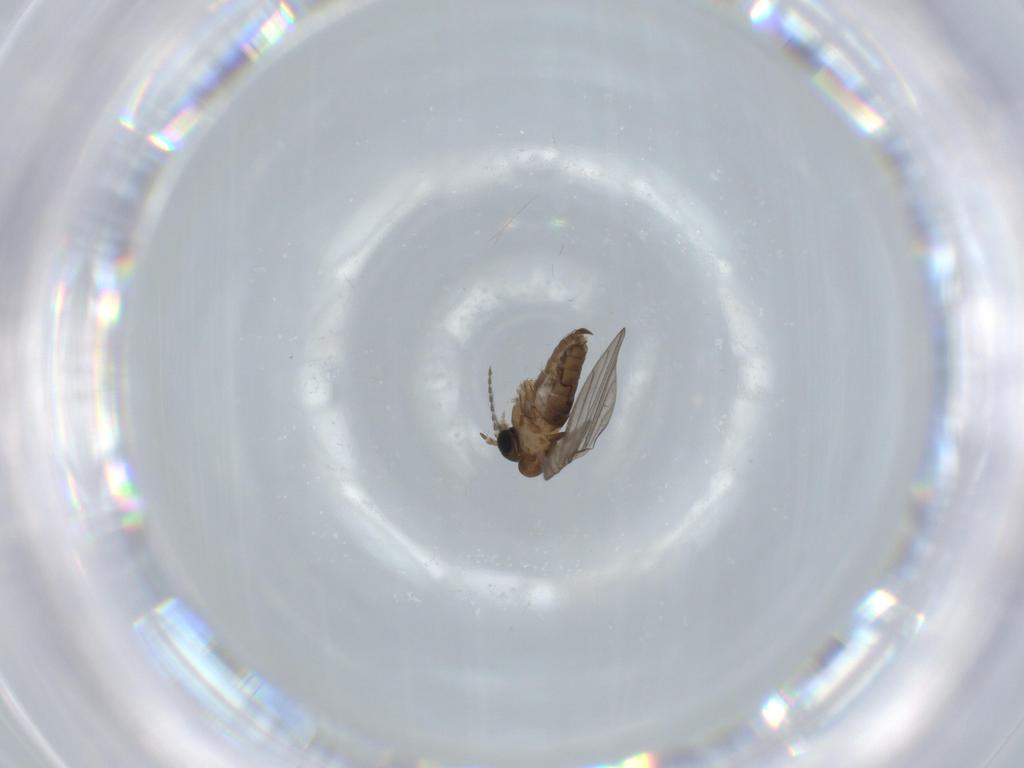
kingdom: Animalia
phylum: Arthropoda
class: Insecta
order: Diptera
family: Psychodidae
